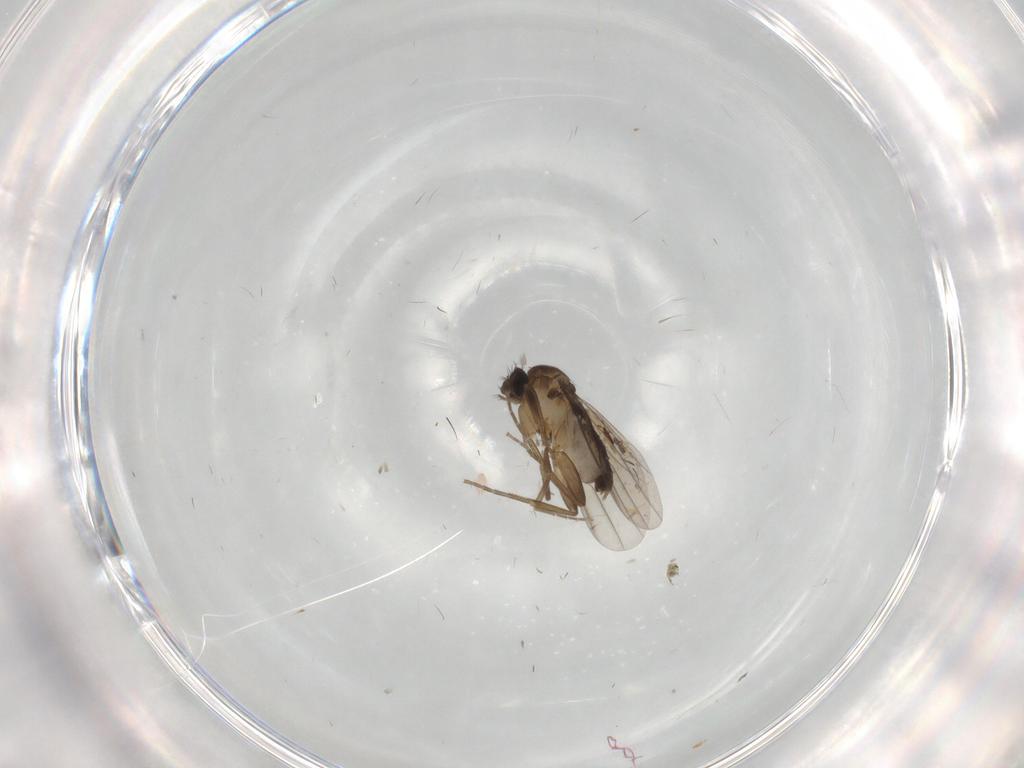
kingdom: Animalia
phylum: Arthropoda
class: Insecta
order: Diptera
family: Phoridae
